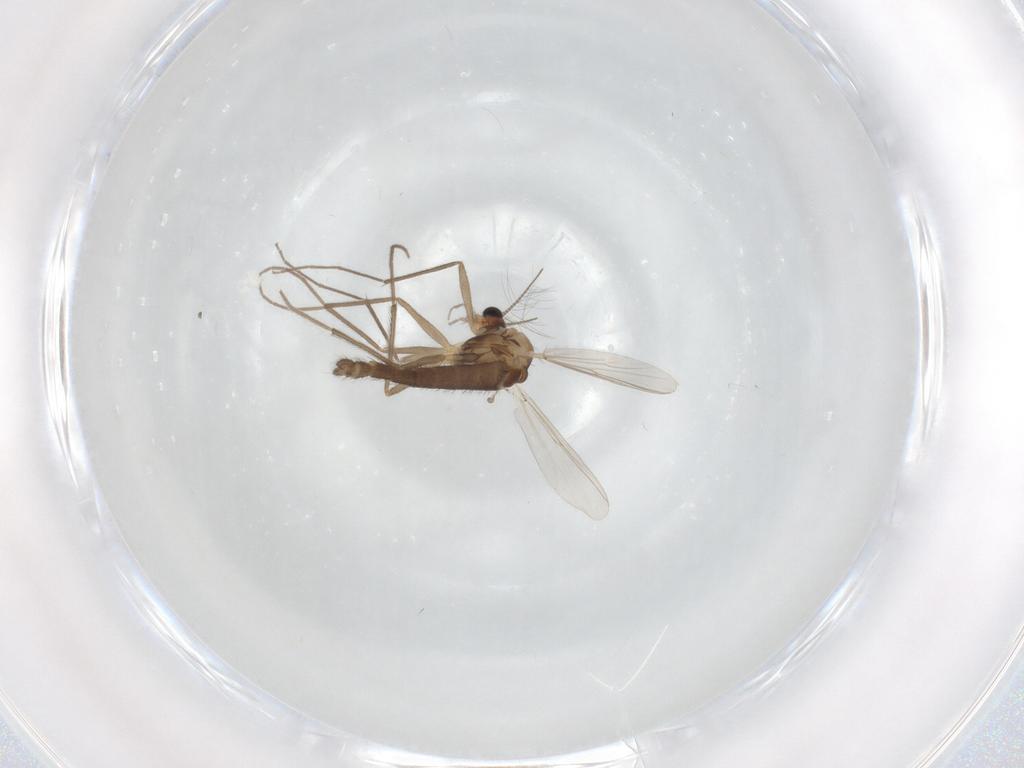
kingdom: Animalia
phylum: Arthropoda
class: Insecta
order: Diptera
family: Chironomidae
